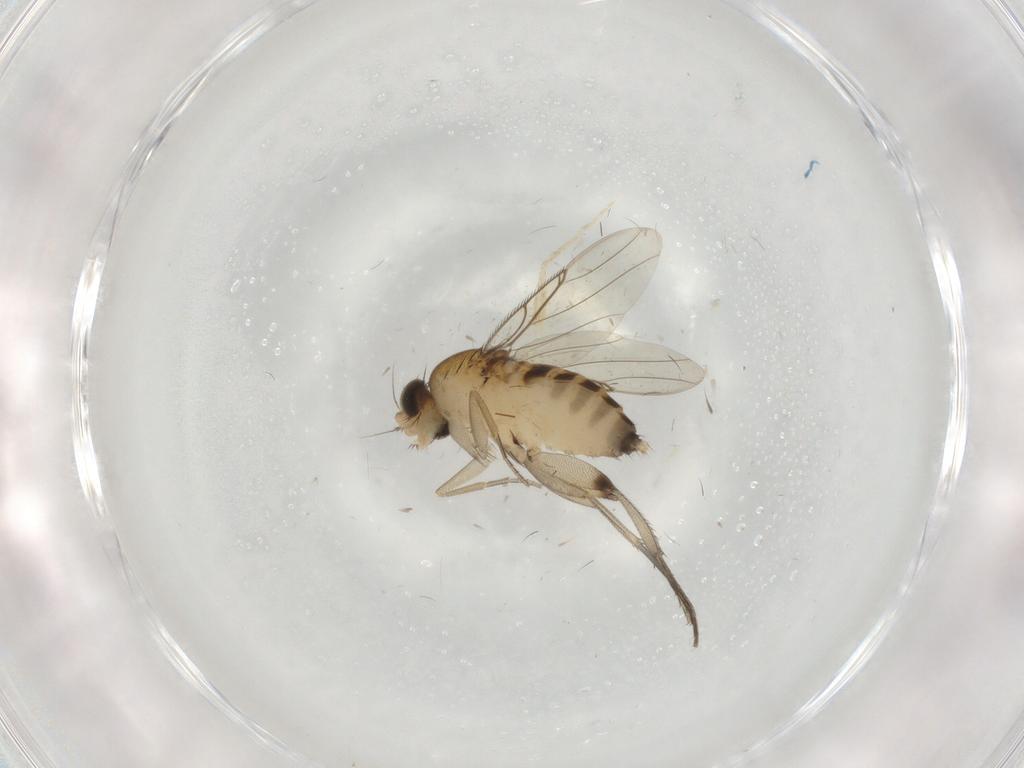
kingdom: Animalia
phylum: Arthropoda
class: Insecta
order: Diptera
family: Phoridae
